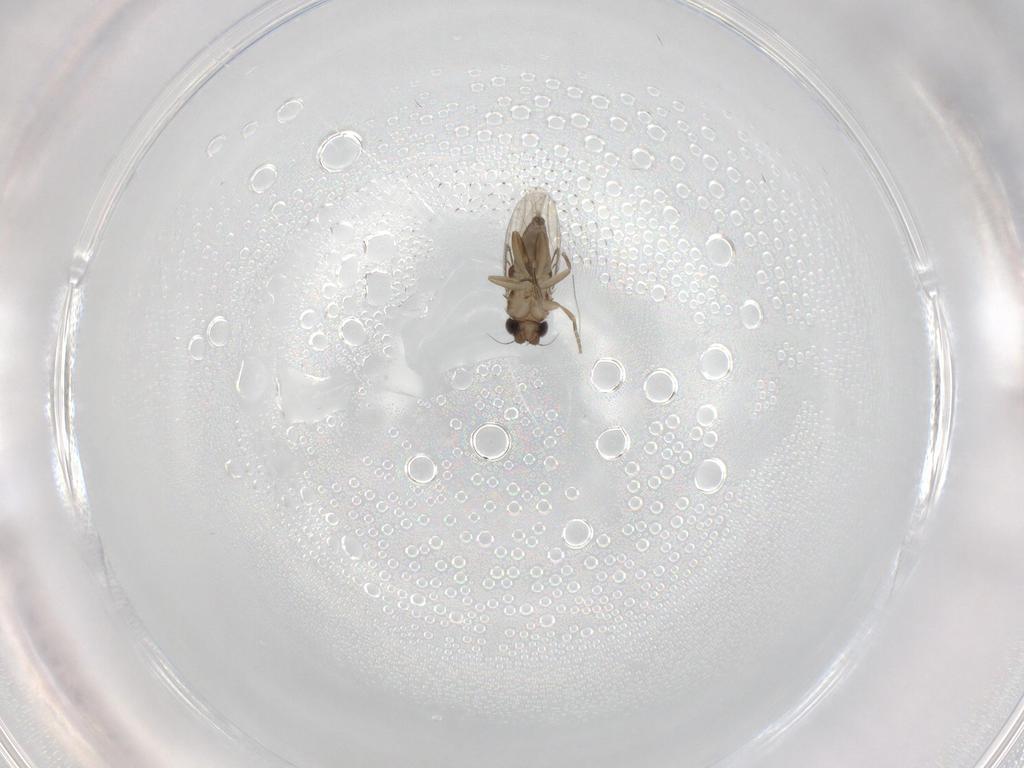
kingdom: Animalia
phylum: Arthropoda
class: Insecta
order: Diptera
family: Phoridae
